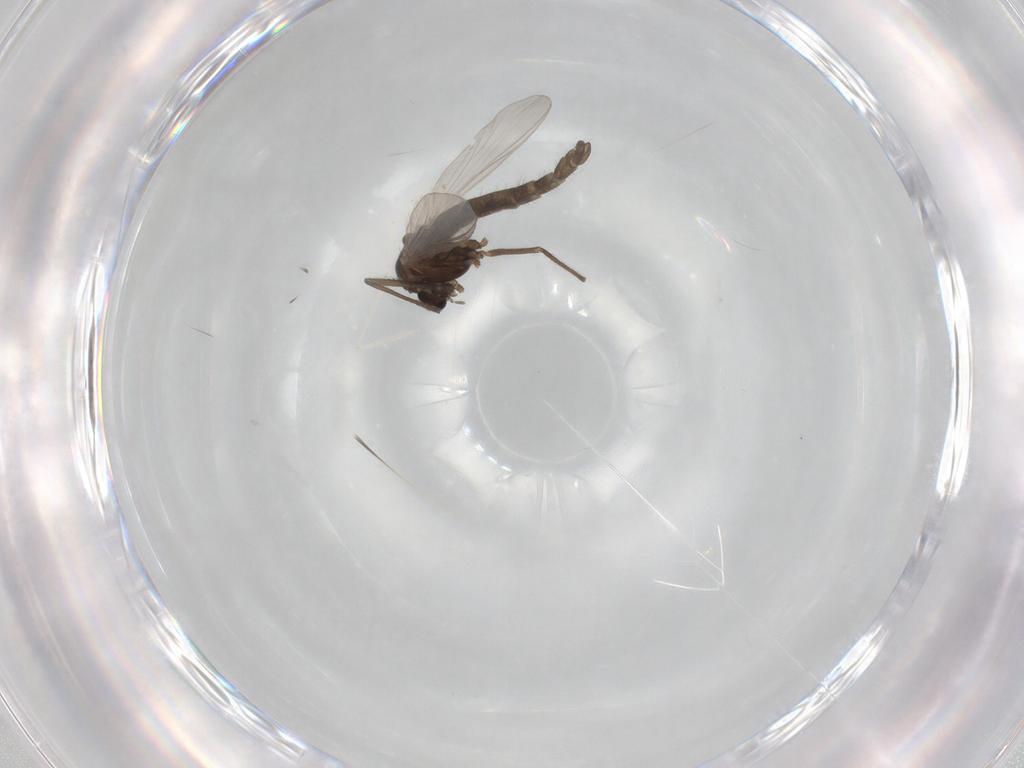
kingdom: Animalia
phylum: Arthropoda
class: Insecta
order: Diptera
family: Chironomidae
